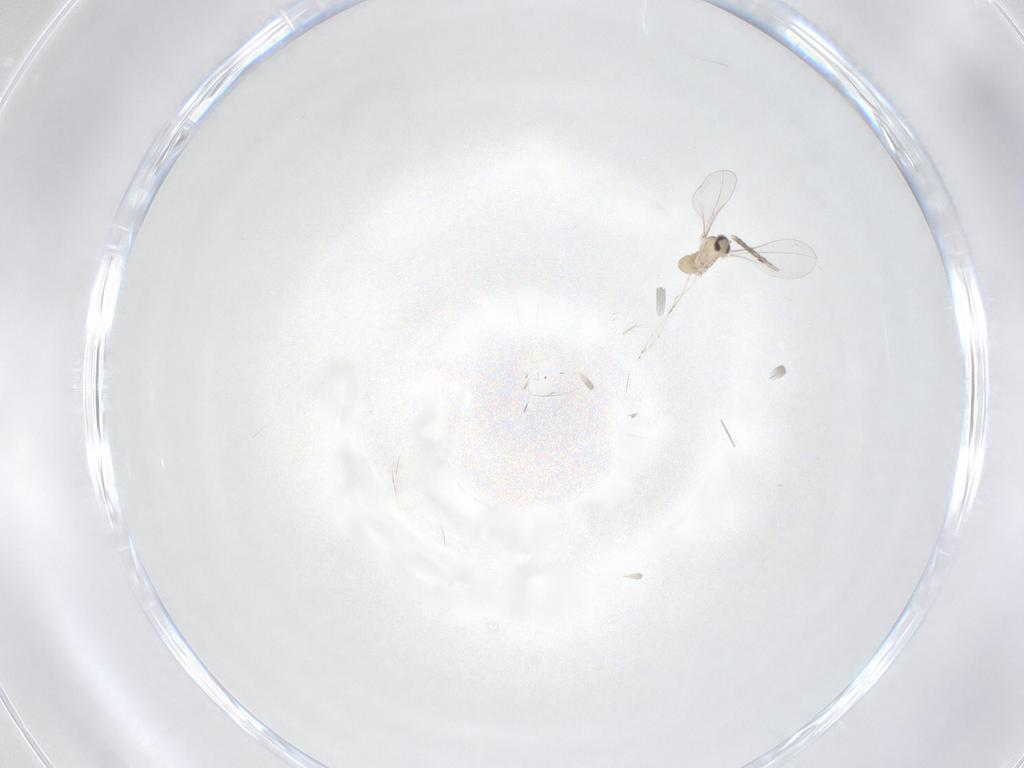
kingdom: Animalia
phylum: Arthropoda
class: Insecta
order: Diptera
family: Cecidomyiidae
